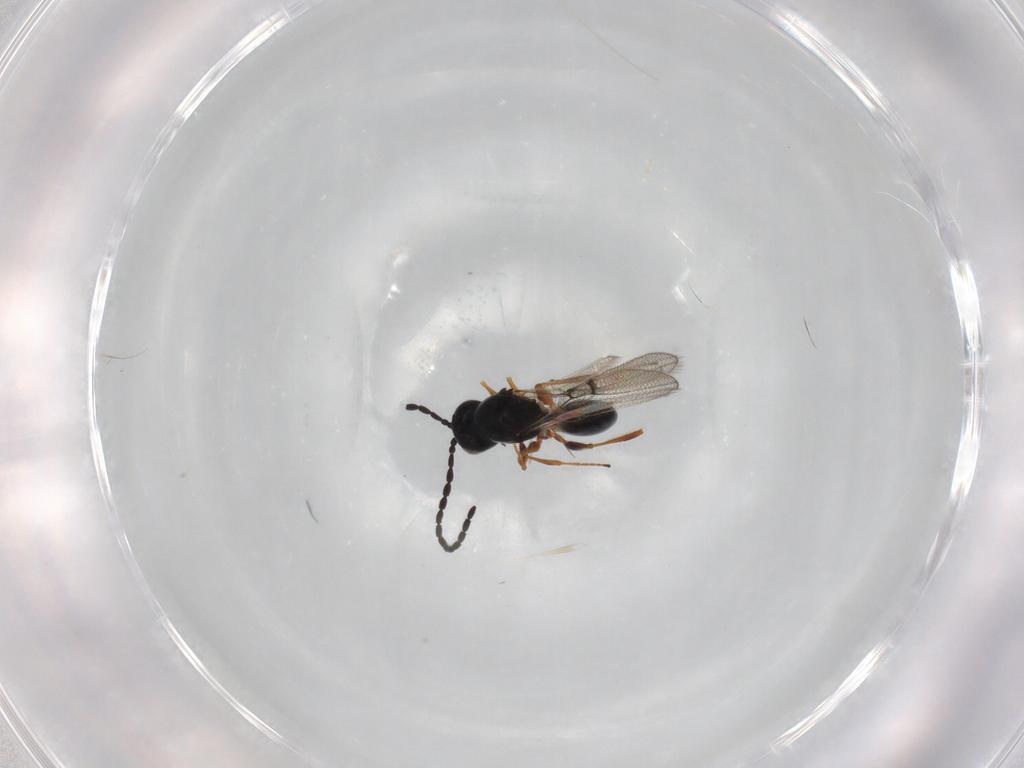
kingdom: Animalia
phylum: Arthropoda
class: Insecta
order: Hymenoptera
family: Figitidae
